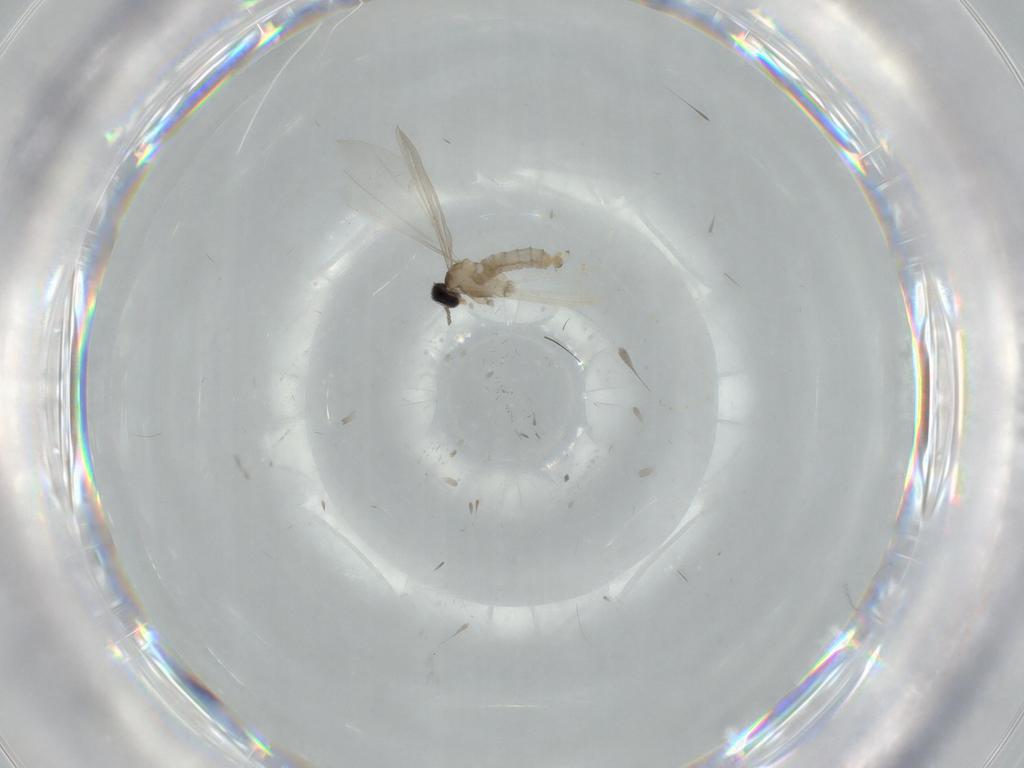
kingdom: Animalia
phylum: Arthropoda
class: Insecta
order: Diptera
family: Cecidomyiidae
